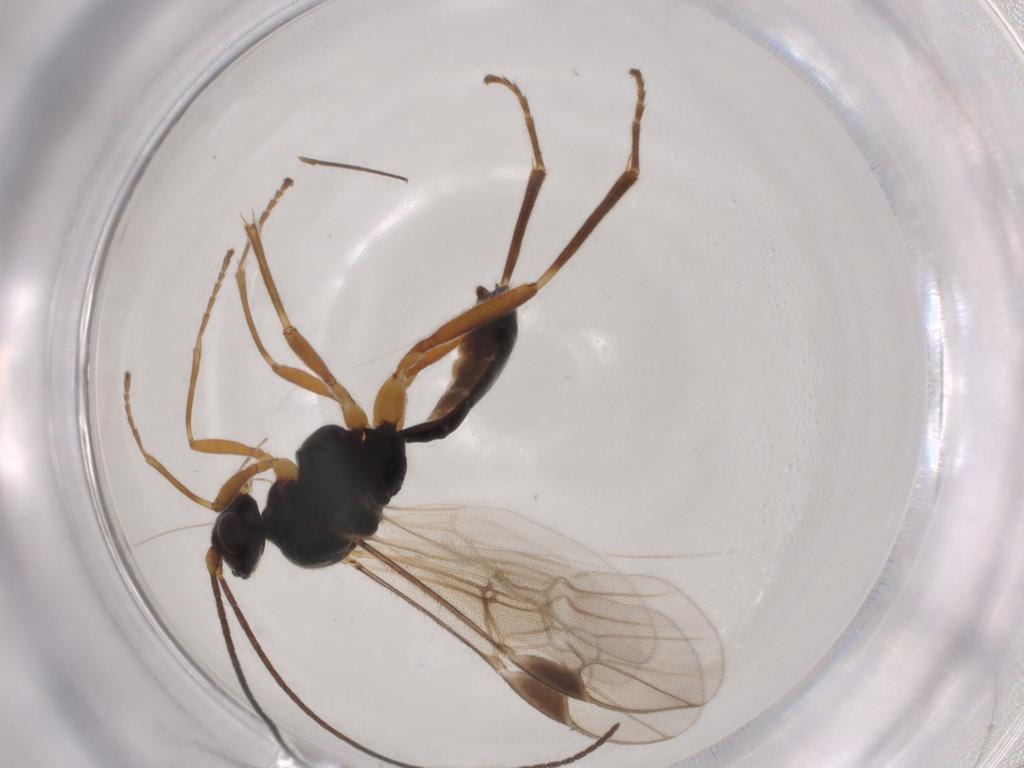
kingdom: Animalia
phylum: Arthropoda
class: Insecta
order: Hymenoptera
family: Braconidae
